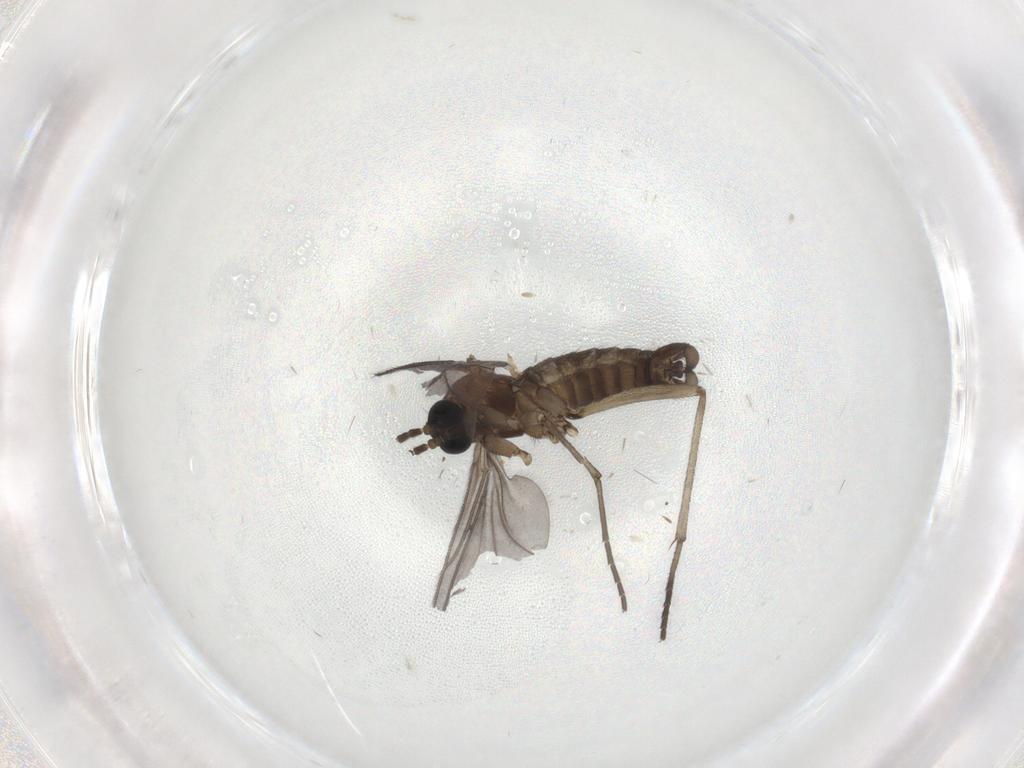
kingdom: Animalia
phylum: Arthropoda
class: Insecta
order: Diptera
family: Sciaridae
